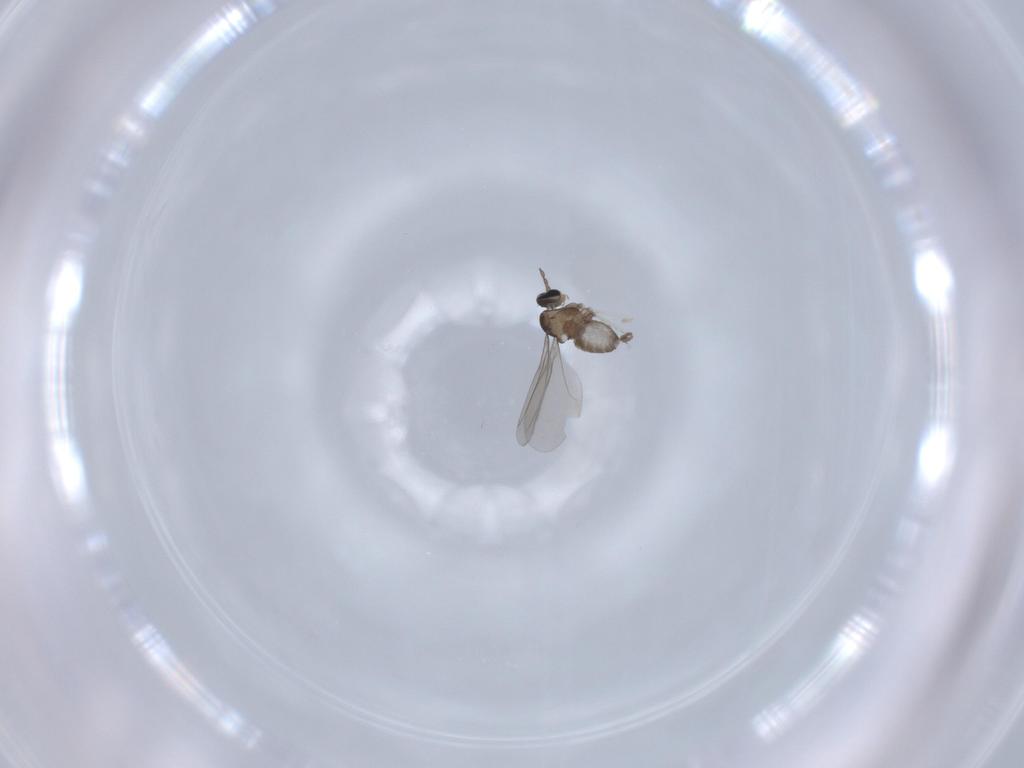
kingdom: Animalia
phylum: Arthropoda
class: Insecta
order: Diptera
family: Cecidomyiidae
